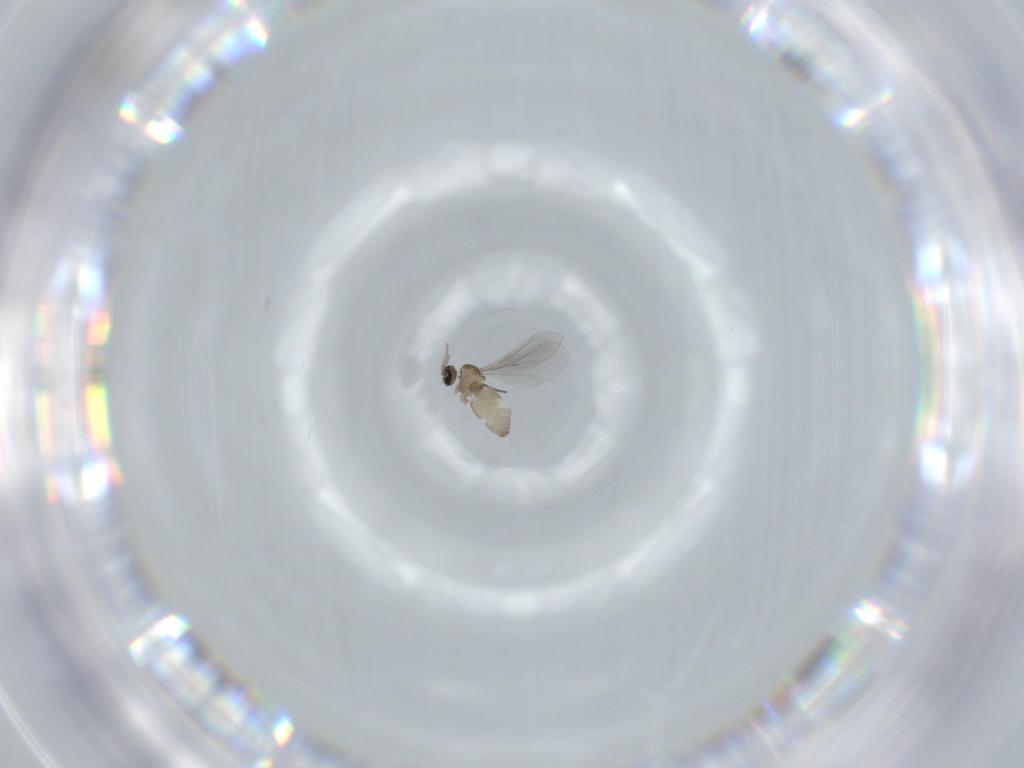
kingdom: Animalia
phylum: Arthropoda
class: Insecta
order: Diptera
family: Cecidomyiidae
